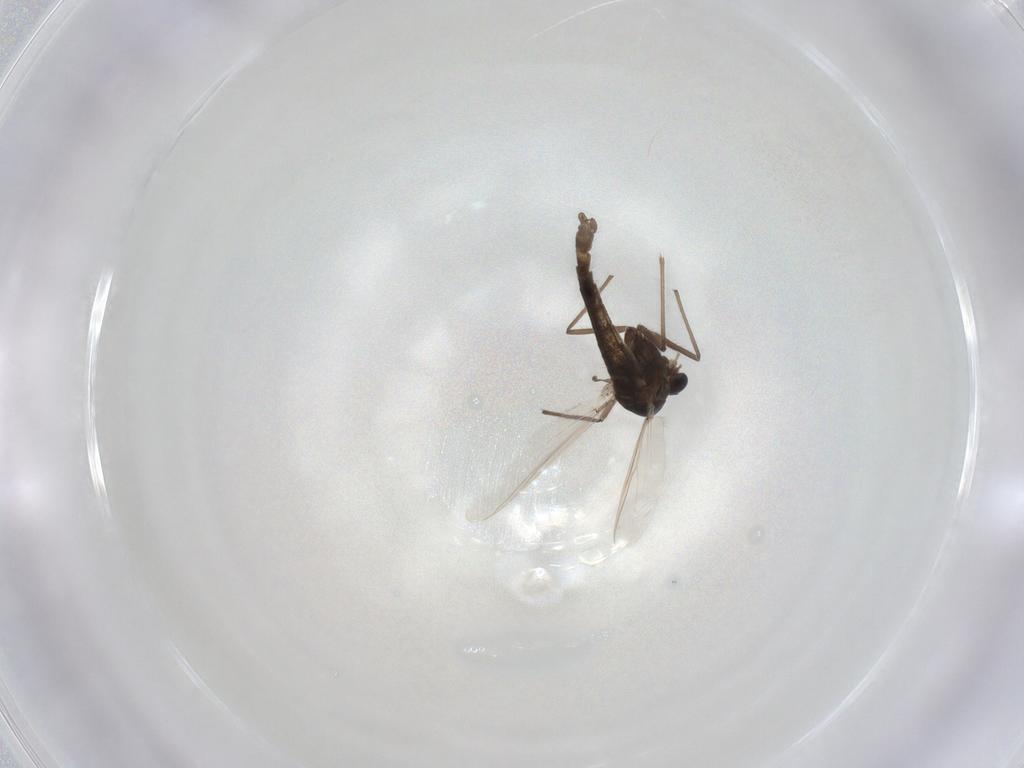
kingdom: Animalia
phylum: Arthropoda
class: Insecta
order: Diptera
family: Chironomidae
